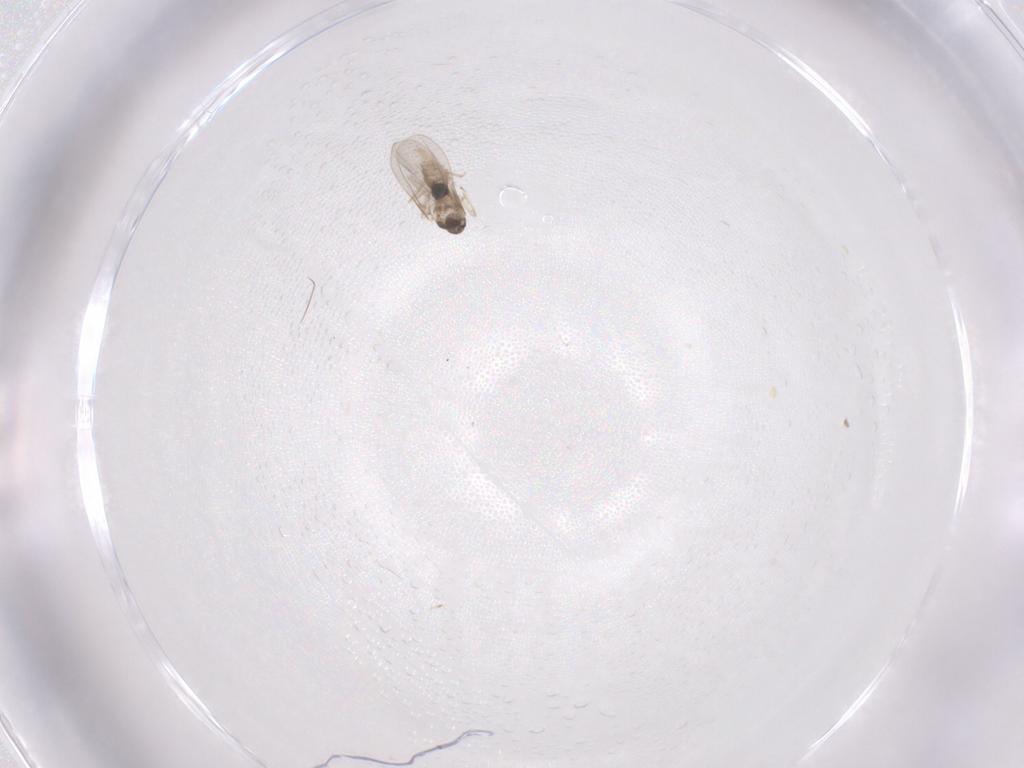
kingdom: Animalia
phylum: Arthropoda
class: Insecta
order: Diptera
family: Cecidomyiidae
